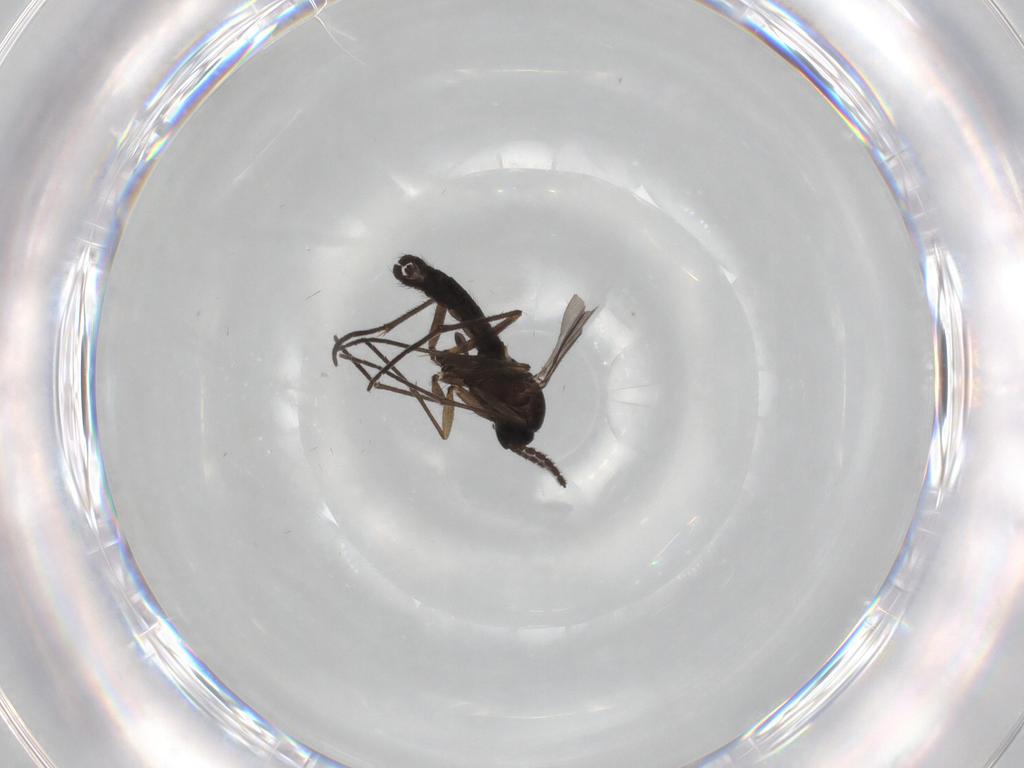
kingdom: Animalia
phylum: Arthropoda
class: Insecta
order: Diptera
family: Sciaridae
